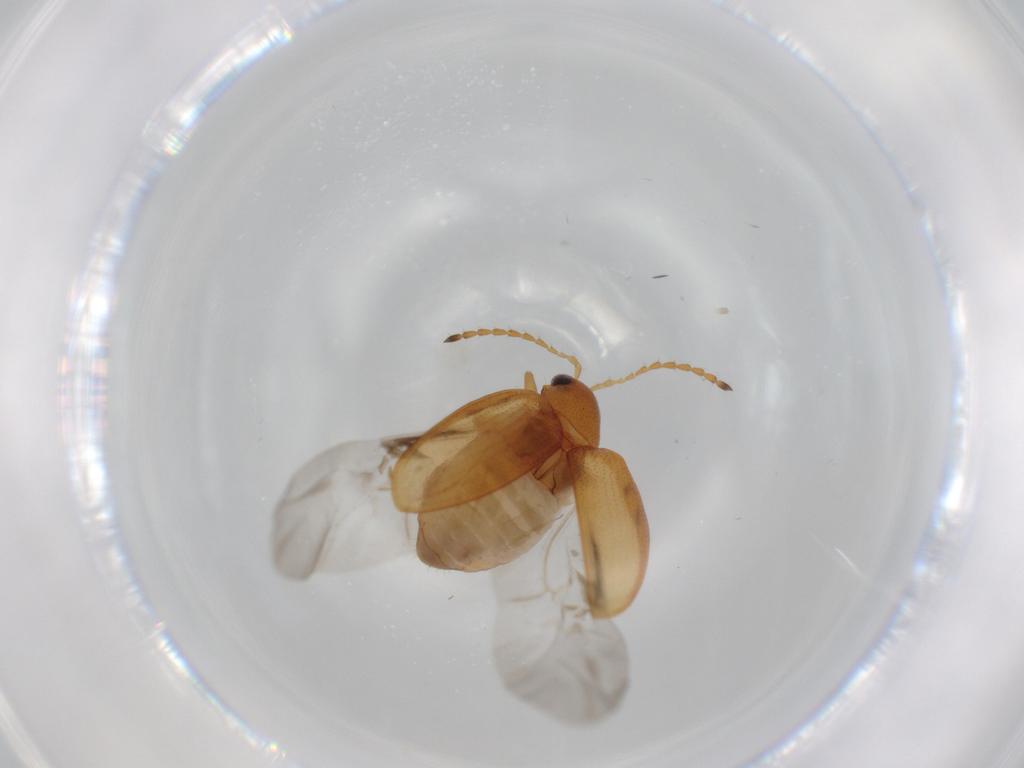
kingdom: Animalia
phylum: Arthropoda
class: Insecta
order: Coleoptera
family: Chrysomelidae
